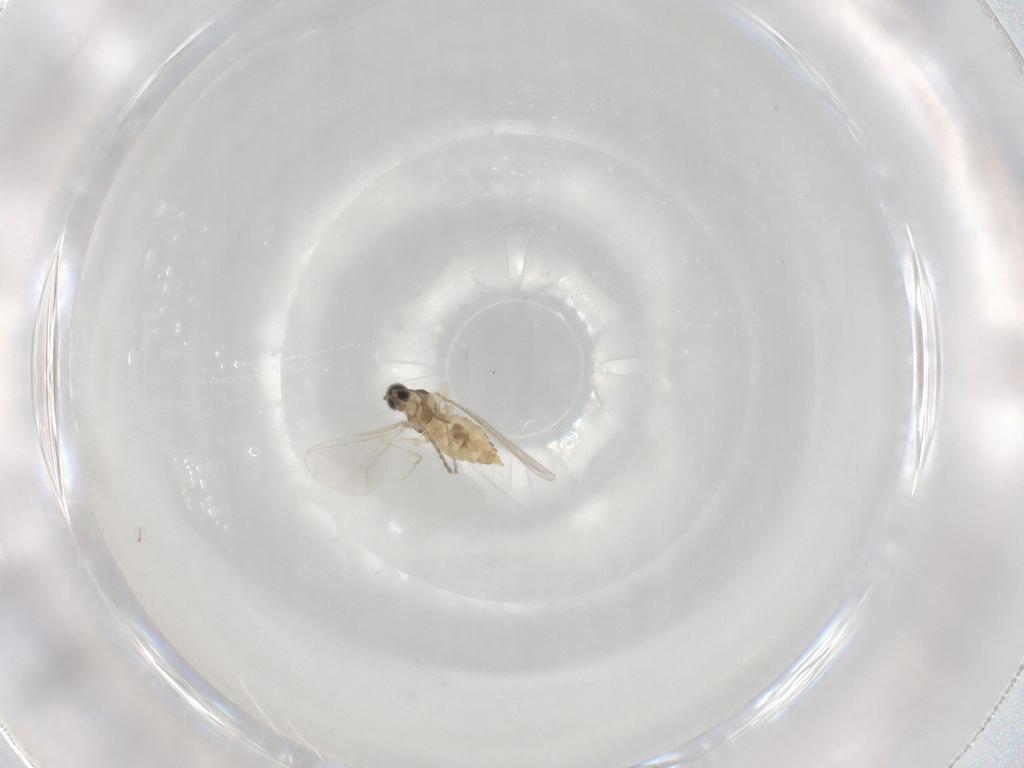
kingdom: Animalia
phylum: Arthropoda
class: Insecta
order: Diptera
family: Cecidomyiidae
